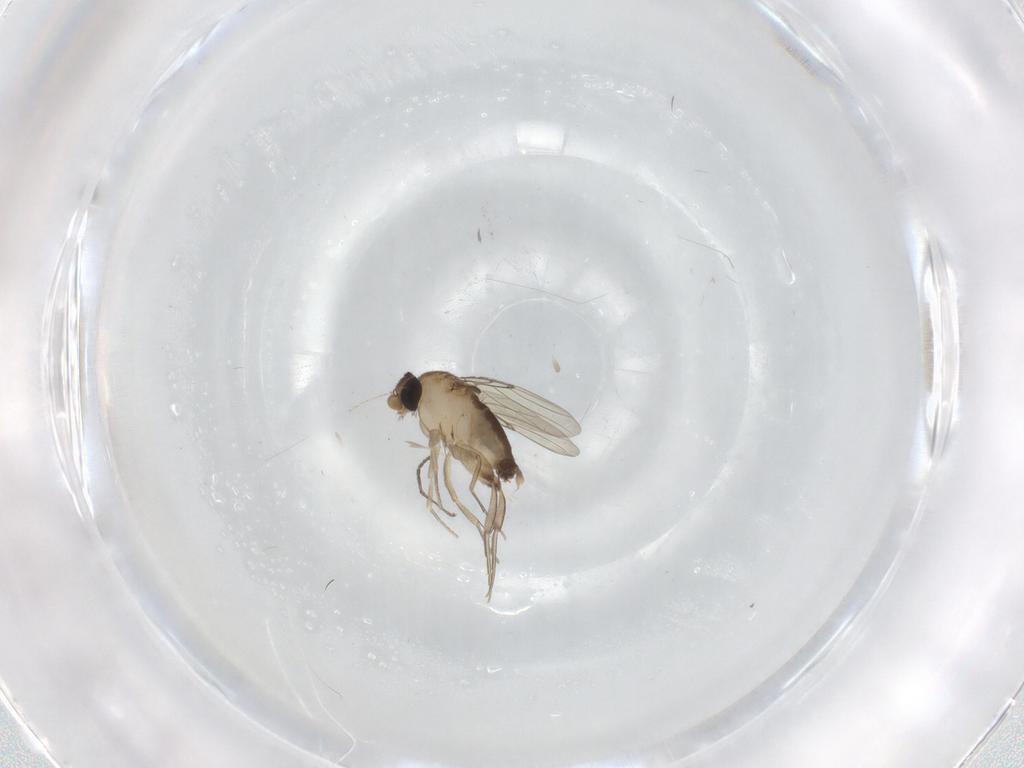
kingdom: Animalia
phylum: Arthropoda
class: Insecta
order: Diptera
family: Phoridae
